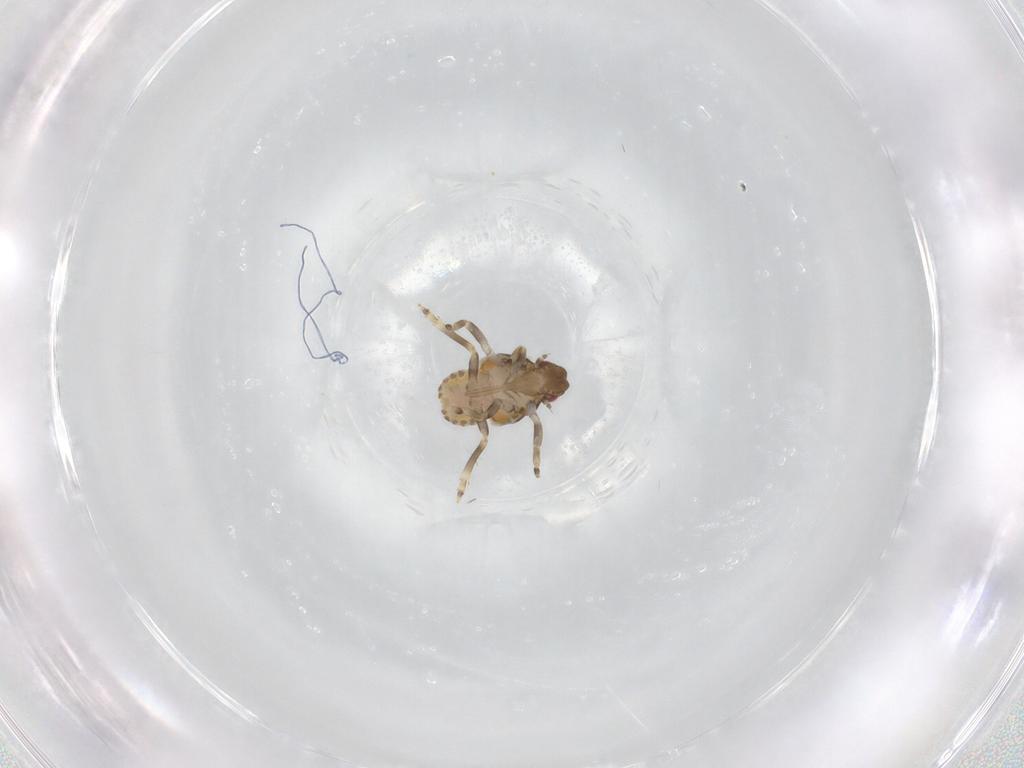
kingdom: Animalia
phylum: Arthropoda
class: Insecta
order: Hemiptera
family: Flatidae
